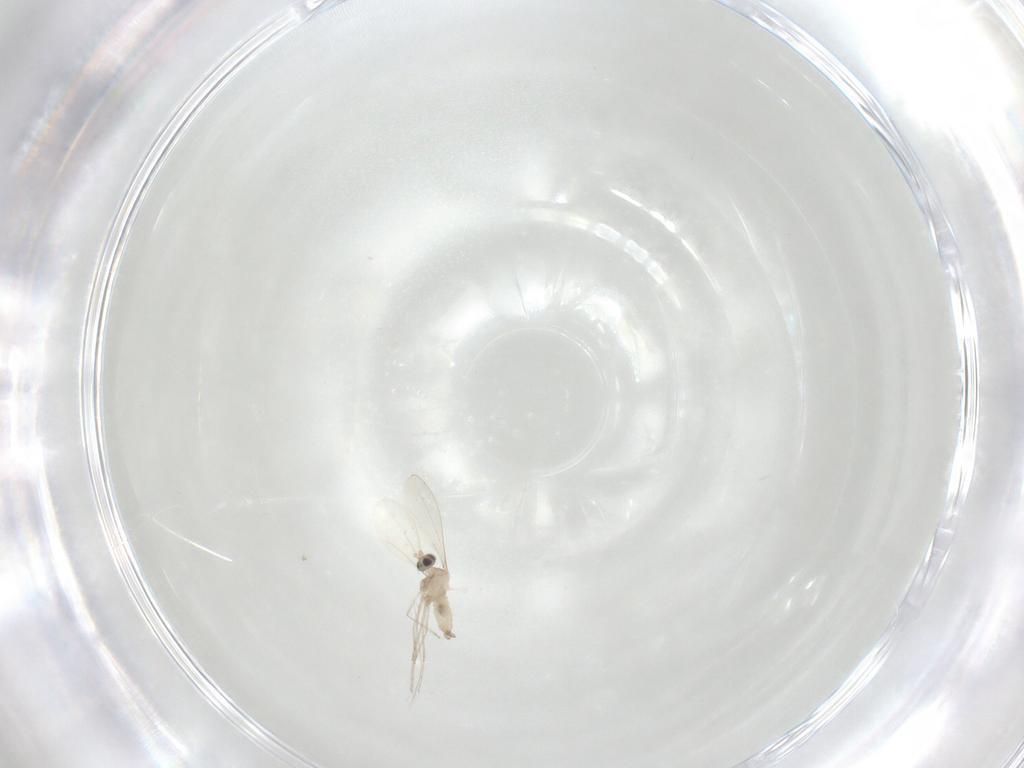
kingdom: Animalia
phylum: Arthropoda
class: Insecta
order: Diptera
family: Cecidomyiidae
